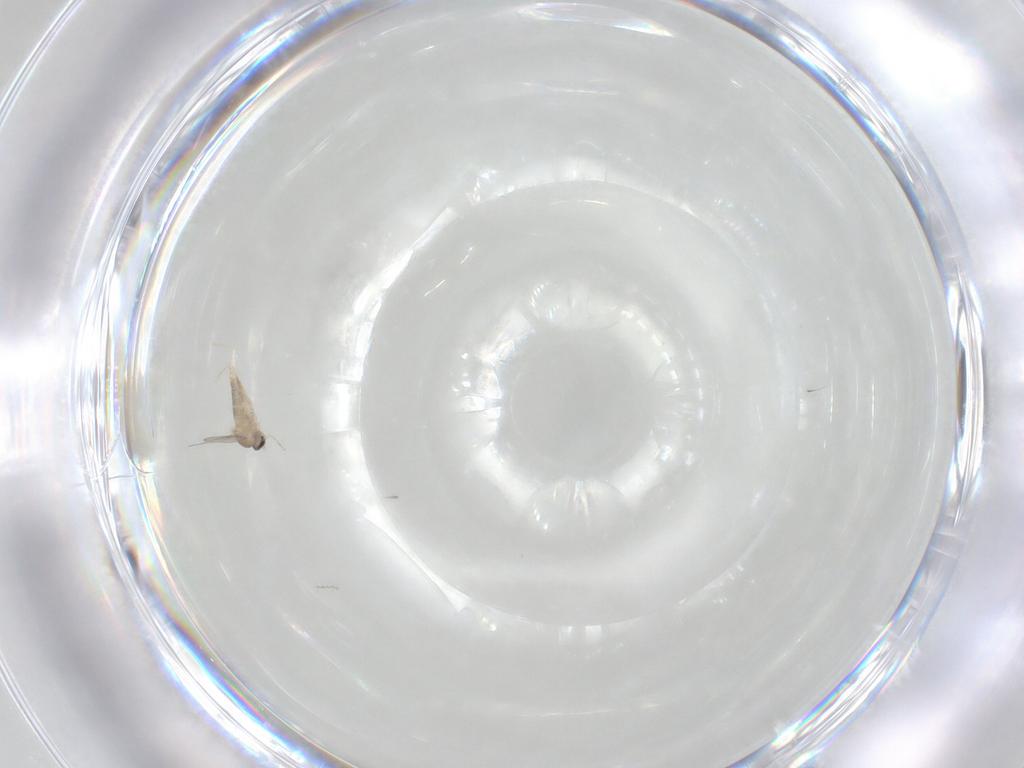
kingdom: Animalia
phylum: Arthropoda
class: Insecta
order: Diptera
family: Cecidomyiidae
